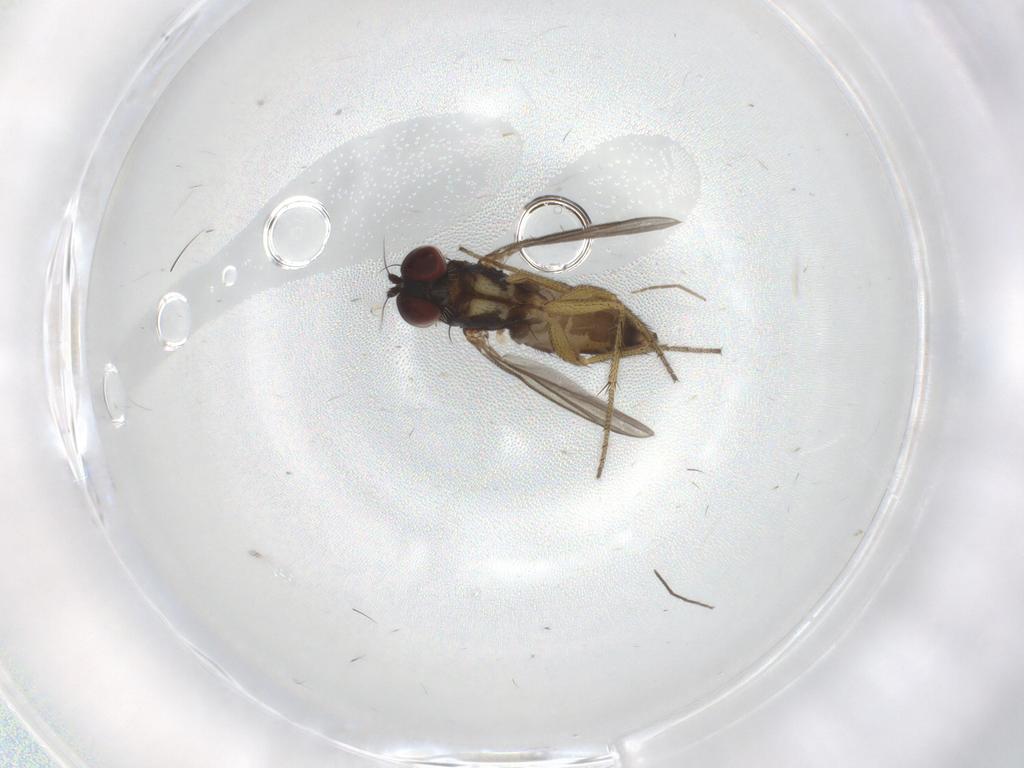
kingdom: Animalia
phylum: Arthropoda
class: Insecta
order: Diptera
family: Dolichopodidae
